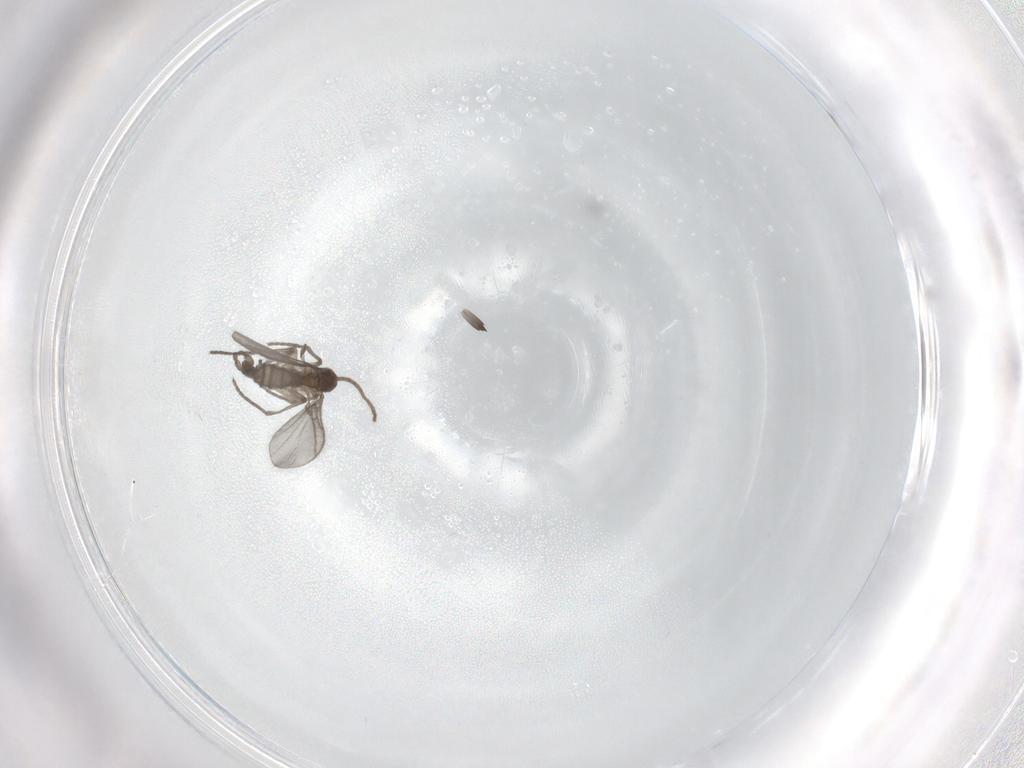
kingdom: Animalia
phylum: Arthropoda
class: Insecta
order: Diptera
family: Sciaridae
